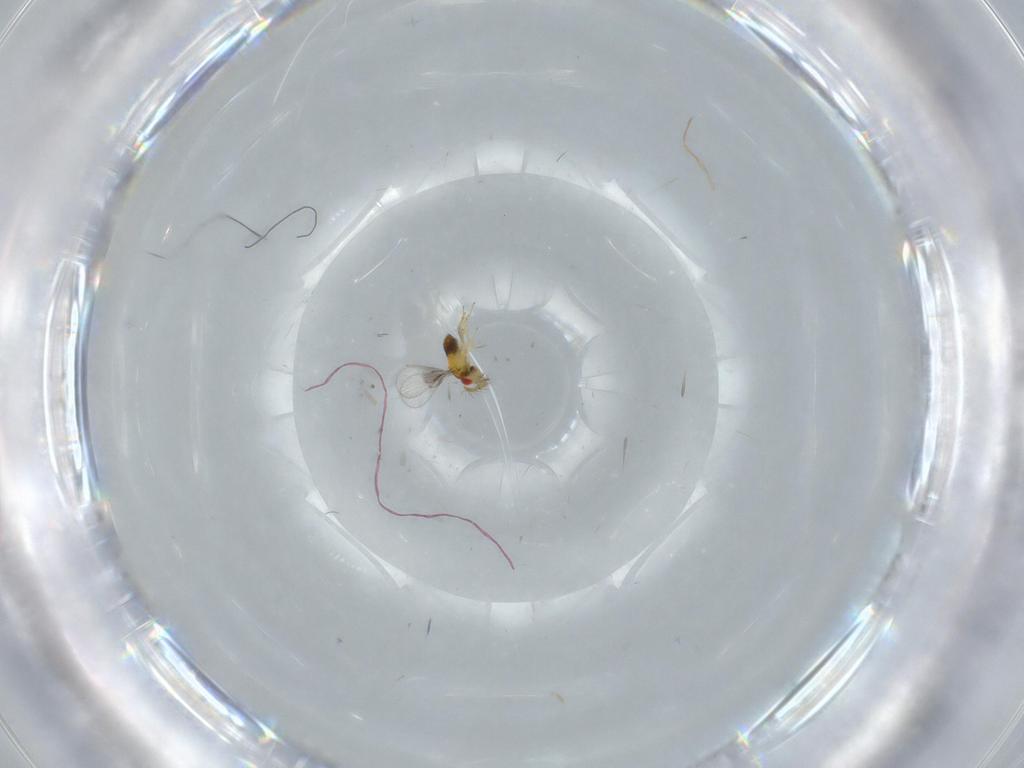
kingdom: Animalia
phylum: Arthropoda
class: Insecta
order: Hymenoptera
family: Trichogrammatidae
